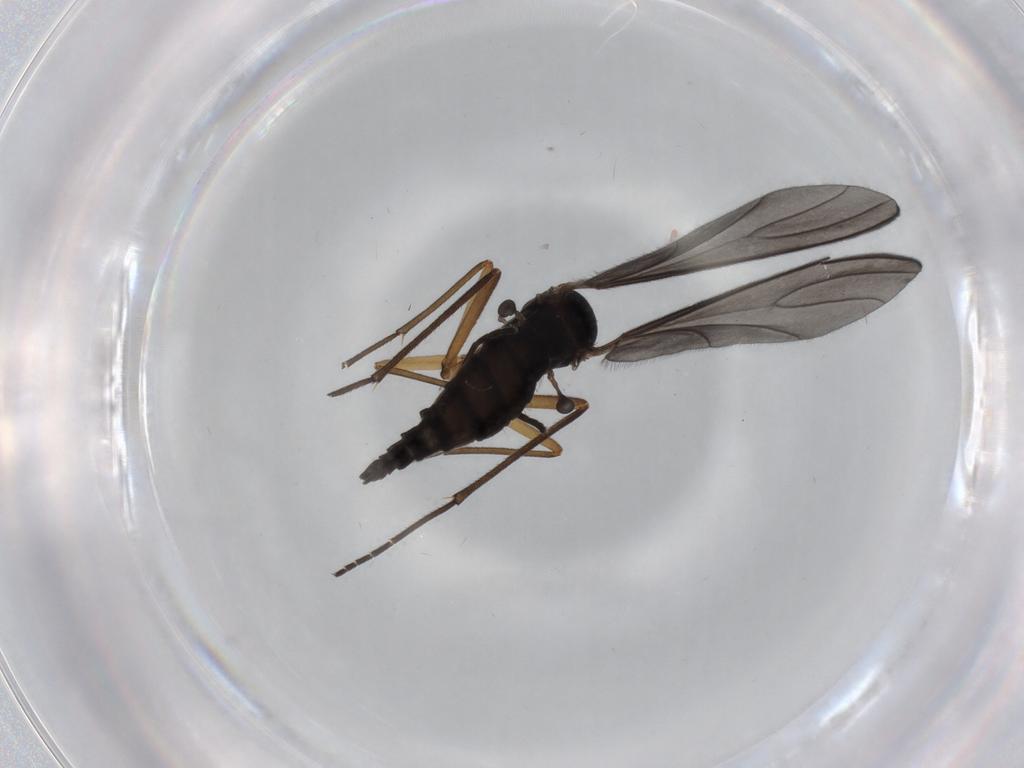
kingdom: Animalia
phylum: Arthropoda
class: Insecta
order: Diptera
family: Sciaridae
